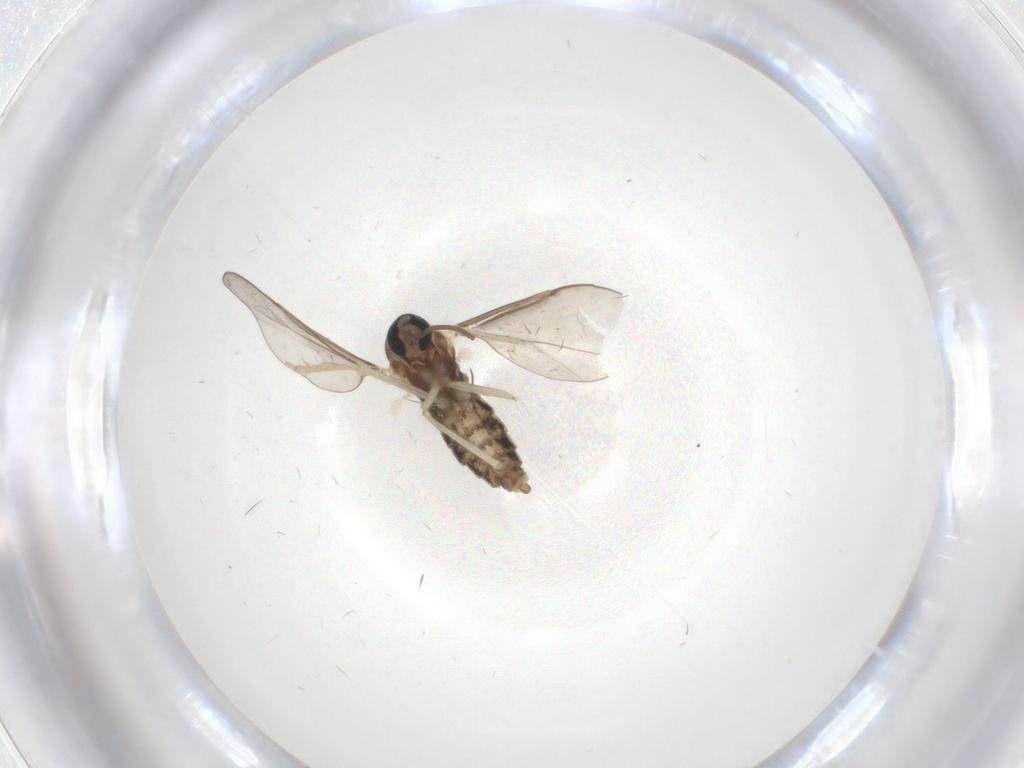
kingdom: Animalia
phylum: Arthropoda
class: Insecta
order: Diptera
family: Cecidomyiidae
